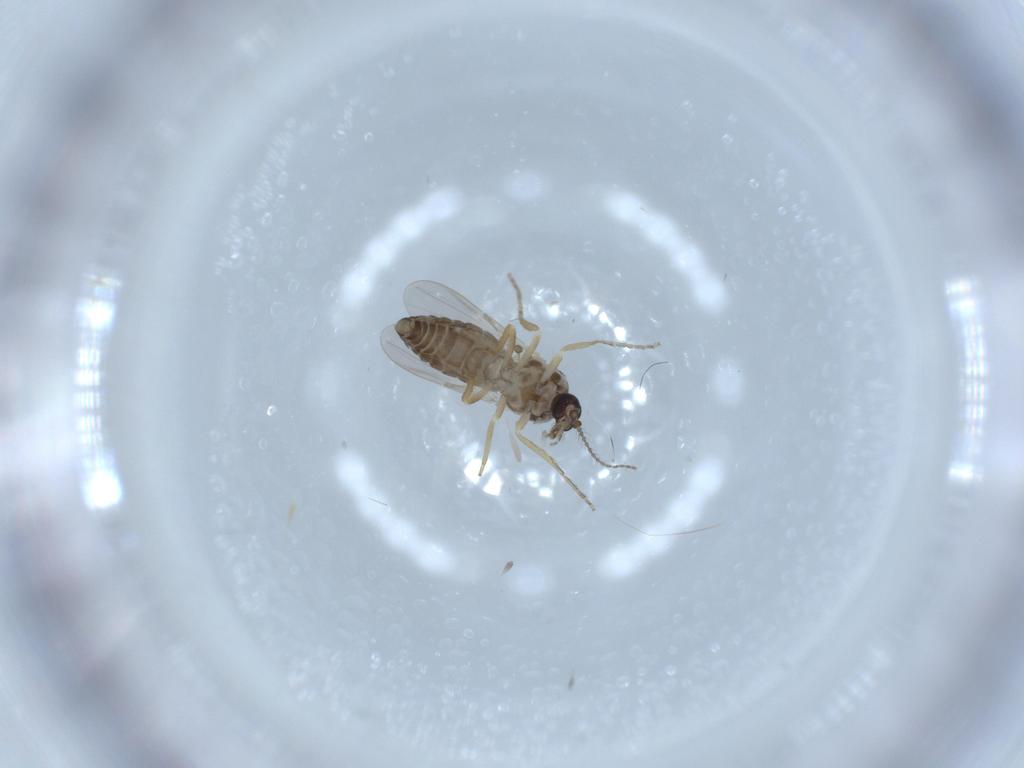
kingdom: Animalia
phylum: Arthropoda
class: Insecta
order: Diptera
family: Ceratopogonidae
